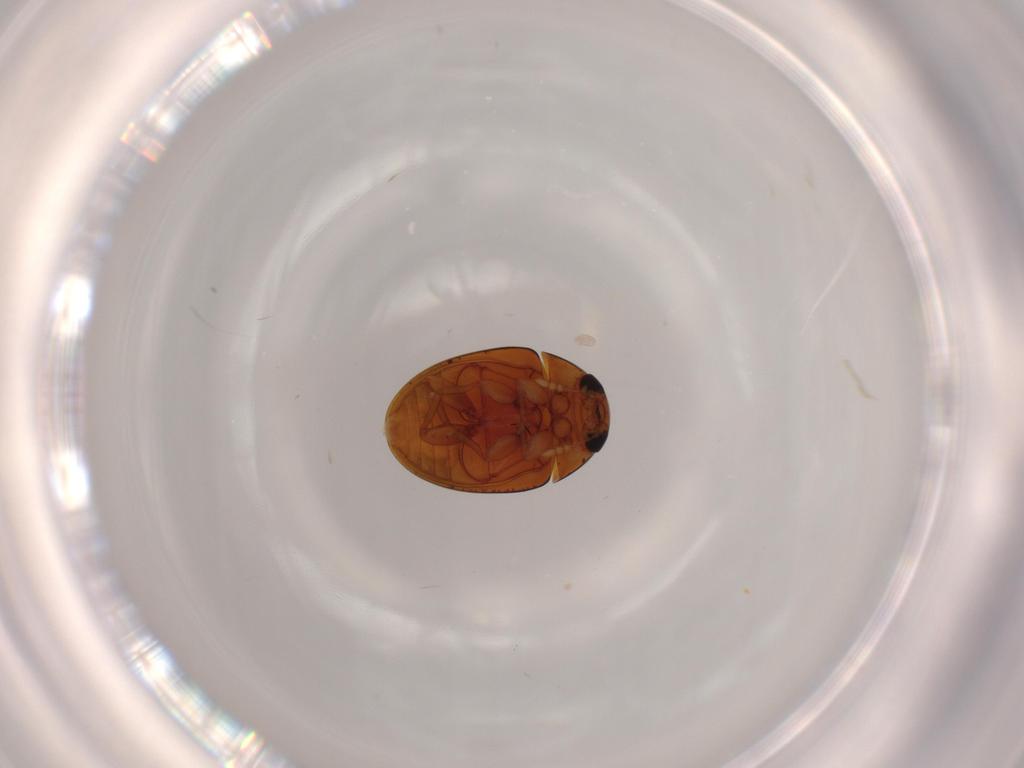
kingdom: Animalia
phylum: Arthropoda
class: Insecta
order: Coleoptera
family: Phalacridae
